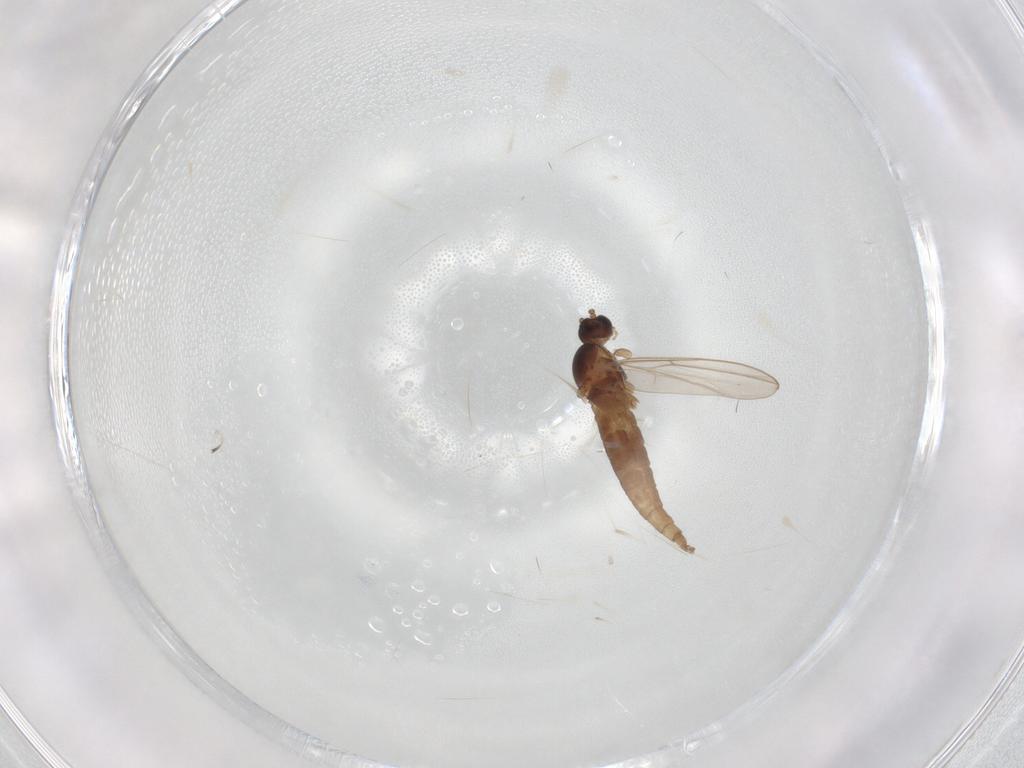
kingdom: Animalia
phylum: Arthropoda
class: Insecta
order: Diptera
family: Cecidomyiidae
